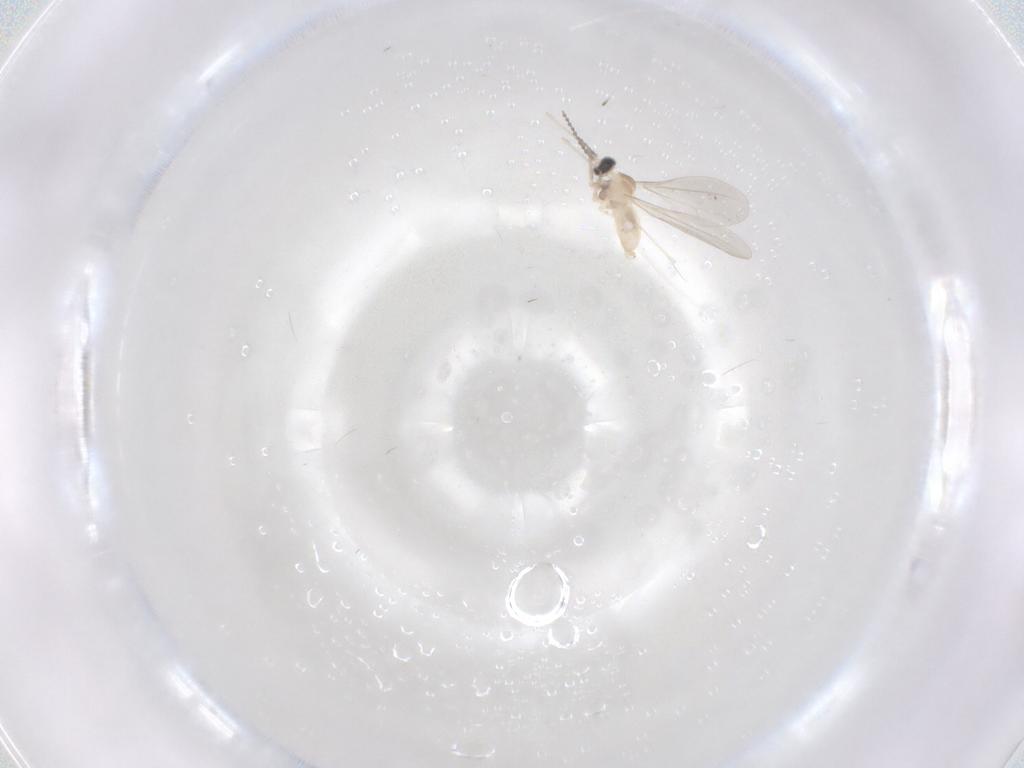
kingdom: Animalia
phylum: Arthropoda
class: Insecta
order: Diptera
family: Cecidomyiidae
